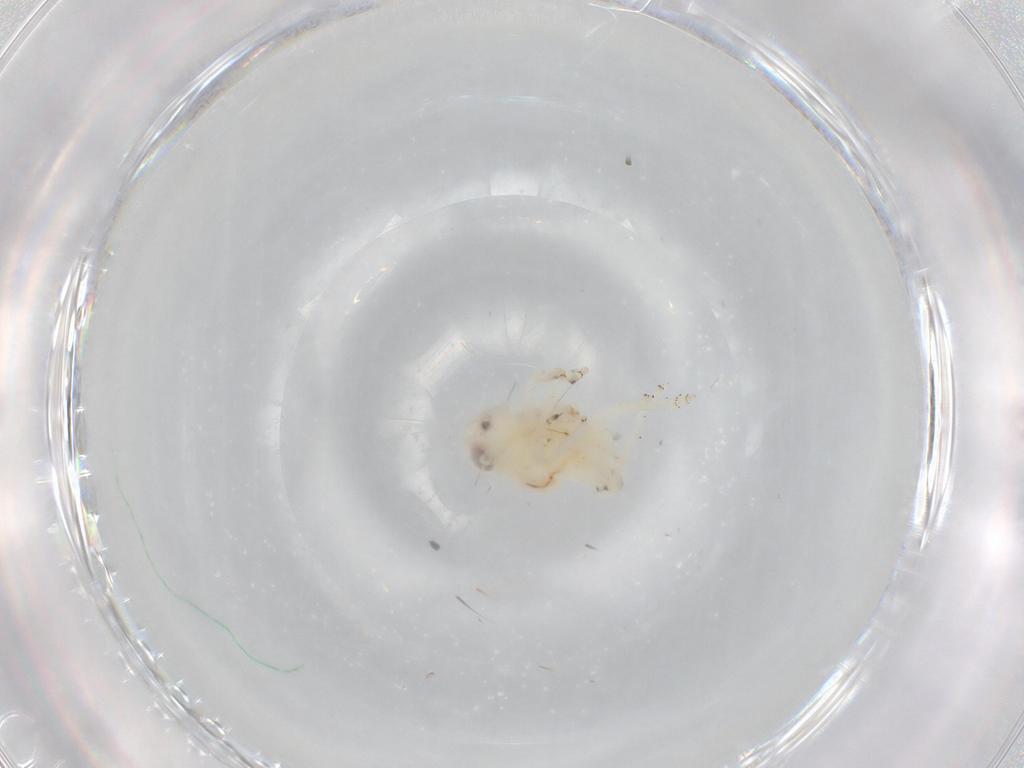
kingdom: Animalia
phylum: Arthropoda
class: Insecta
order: Hemiptera
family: Nogodinidae
